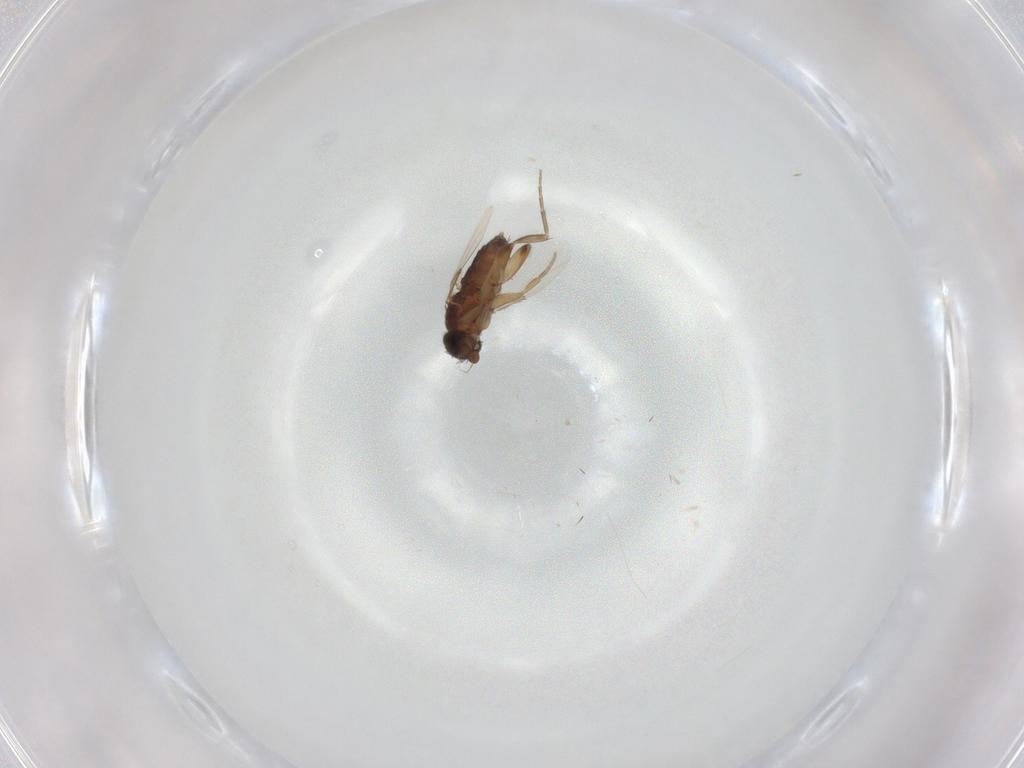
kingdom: Animalia
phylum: Arthropoda
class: Insecta
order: Diptera
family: Phoridae
